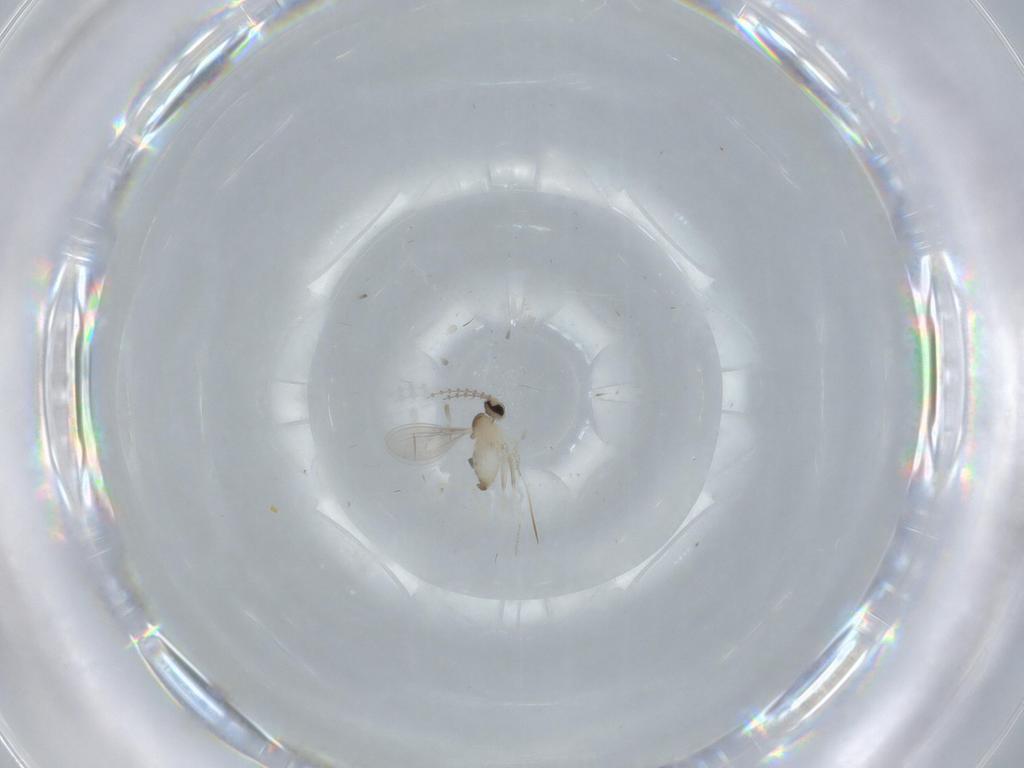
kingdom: Animalia
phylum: Arthropoda
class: Insecta
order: Diptera
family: Cecidomyiidae
